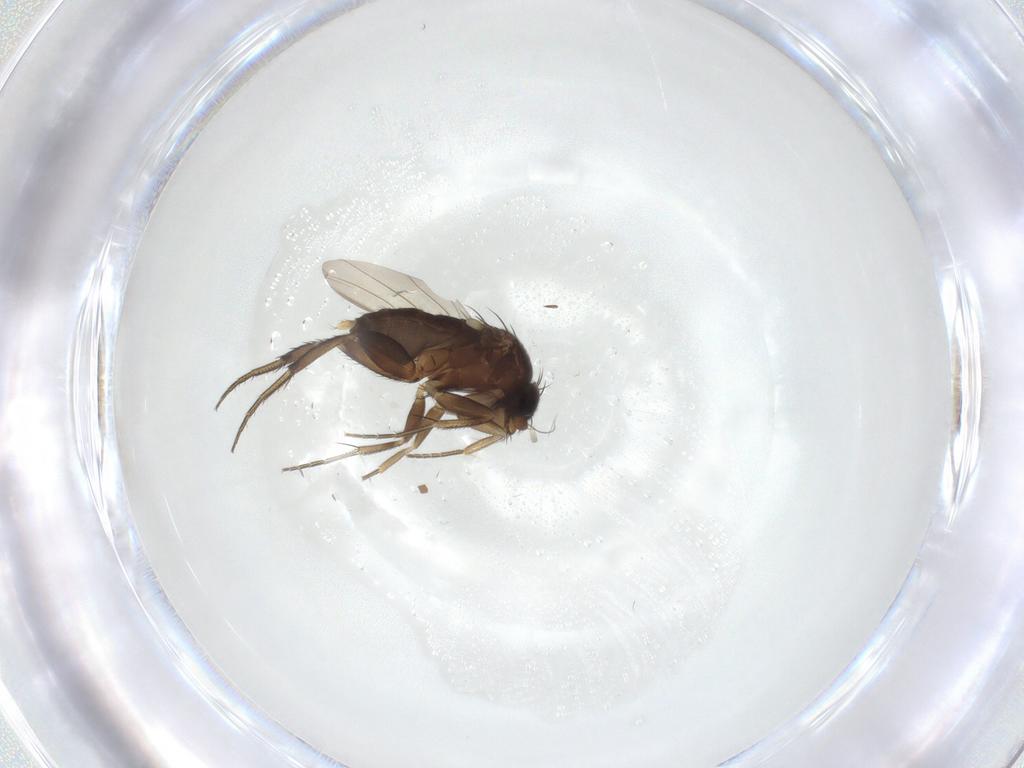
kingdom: Animalia
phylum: Arthropoda
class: Insecta
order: Diptera
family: Phoridae
